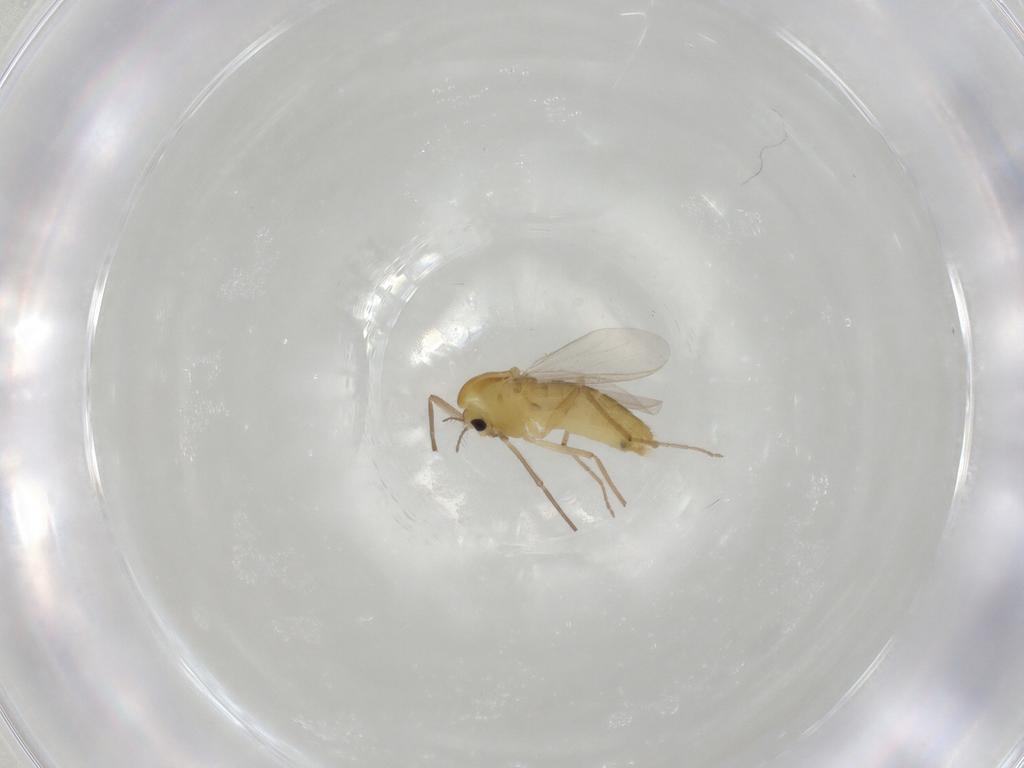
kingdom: Animalia
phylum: Arthropoda
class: Insecta
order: Diptera
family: Chironomidae
